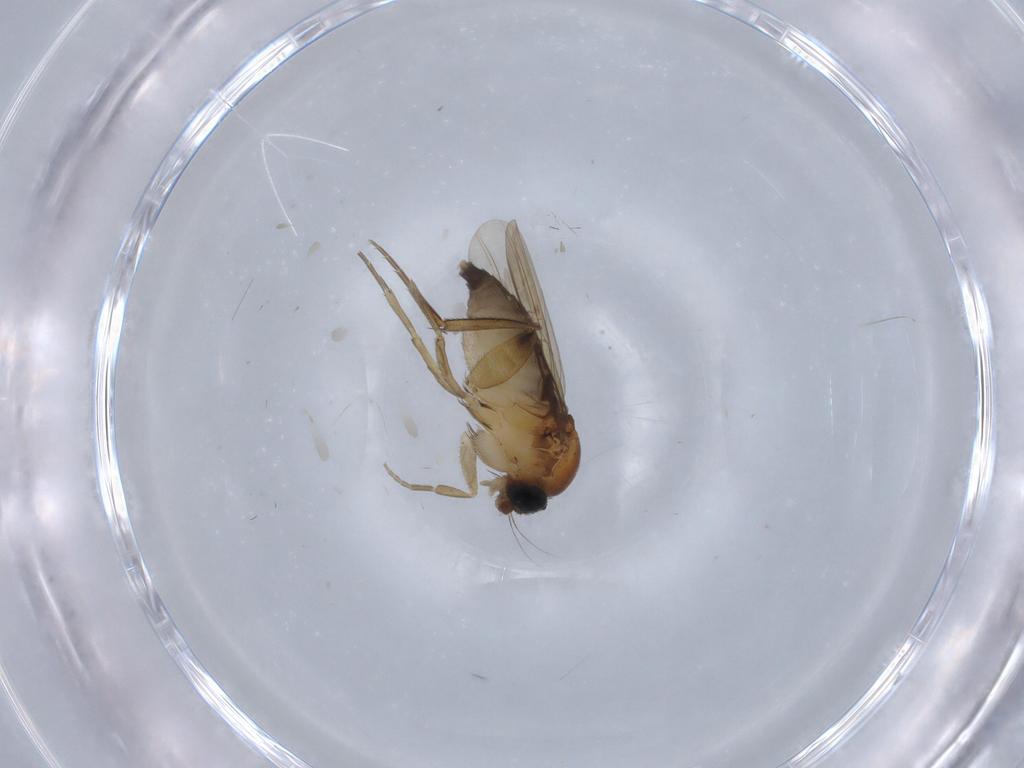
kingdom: Animalia
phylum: Arthropoda
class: Insecta
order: Diptera
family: Phoridae
